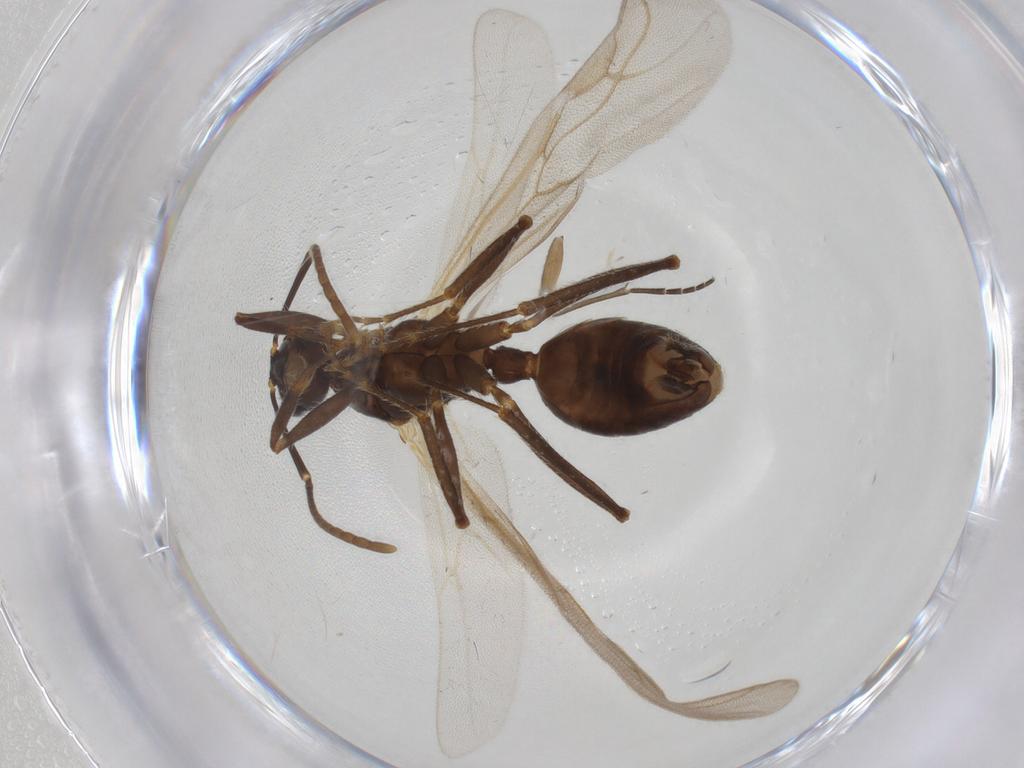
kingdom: Animalia
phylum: Arthropoda
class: Insecta
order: Hymenoptera
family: Formicidae
